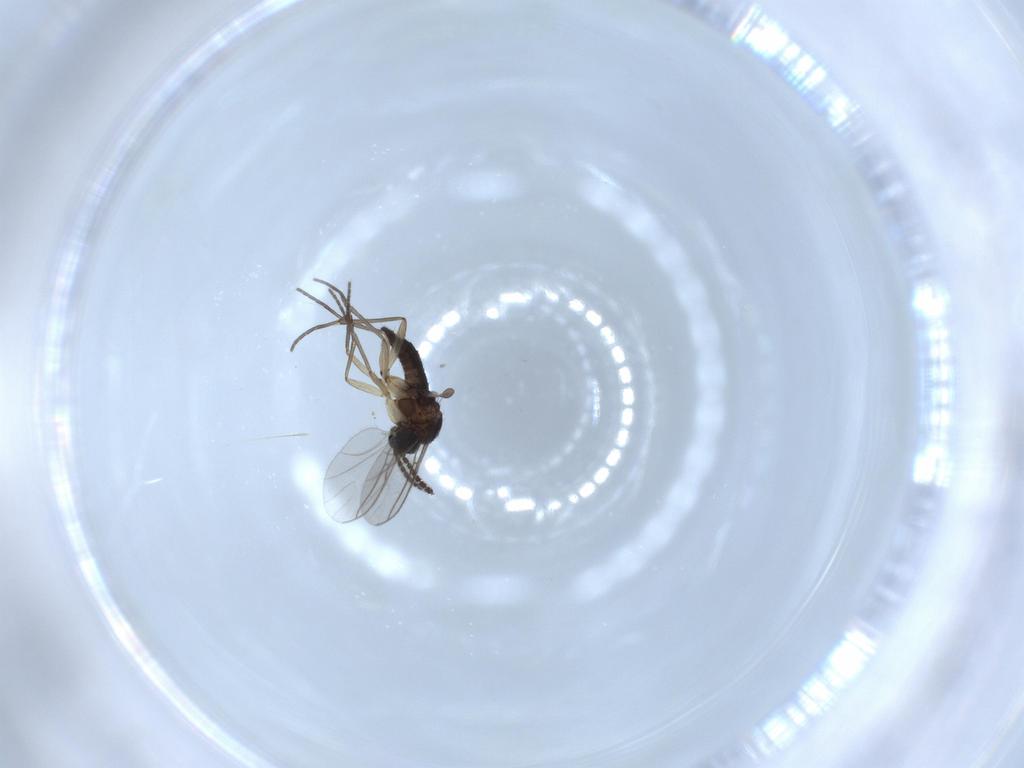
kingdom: Animalia
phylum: Arthropoda
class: Insecta
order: Diptera
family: Sciaridae
